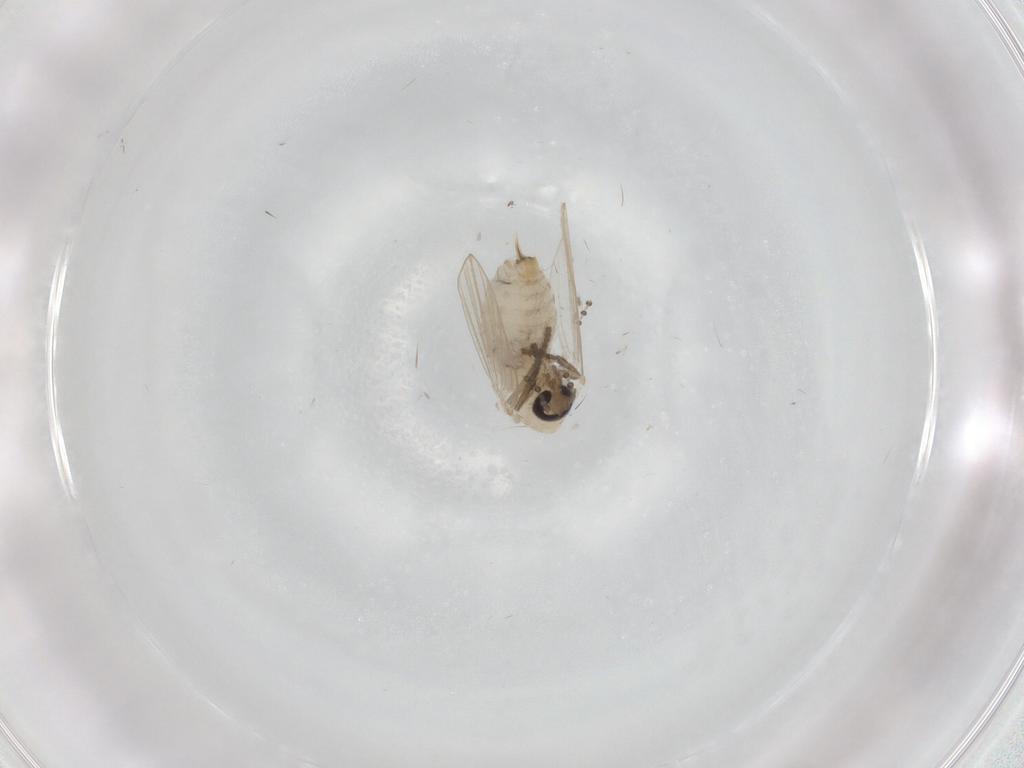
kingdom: Animalia
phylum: Arthropoda
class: Insecta
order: Diptera
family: Psychodidae
